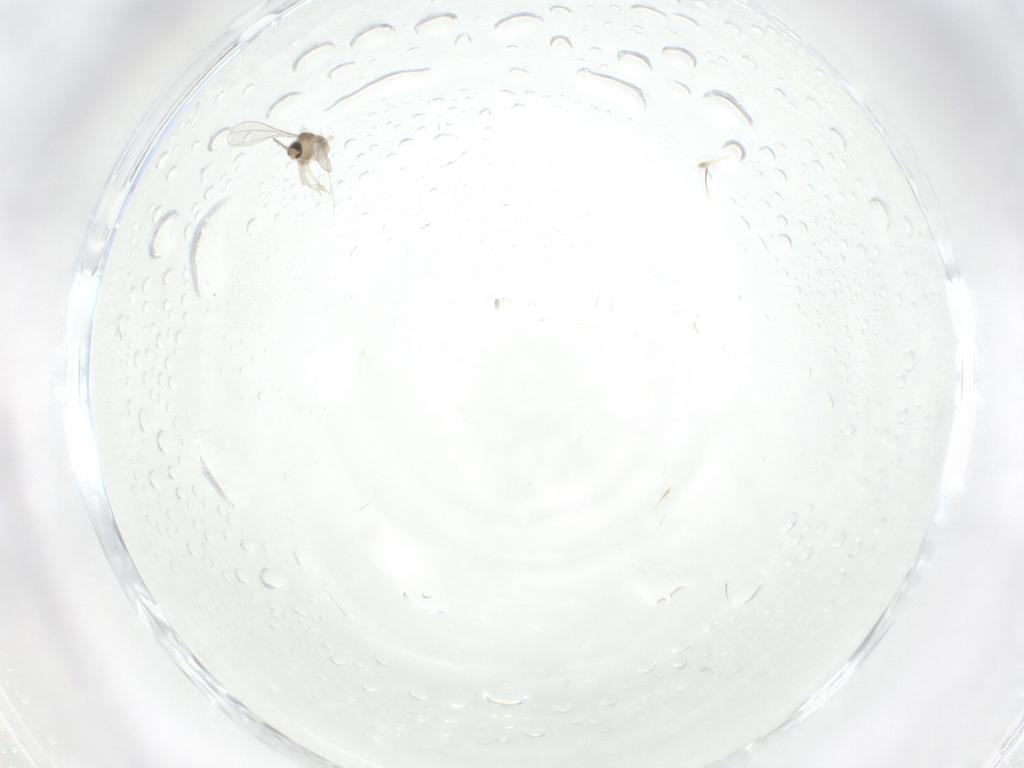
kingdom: Animalia
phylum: Arthropoda
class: Insecta
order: Diptera
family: Cecidomyiidae
